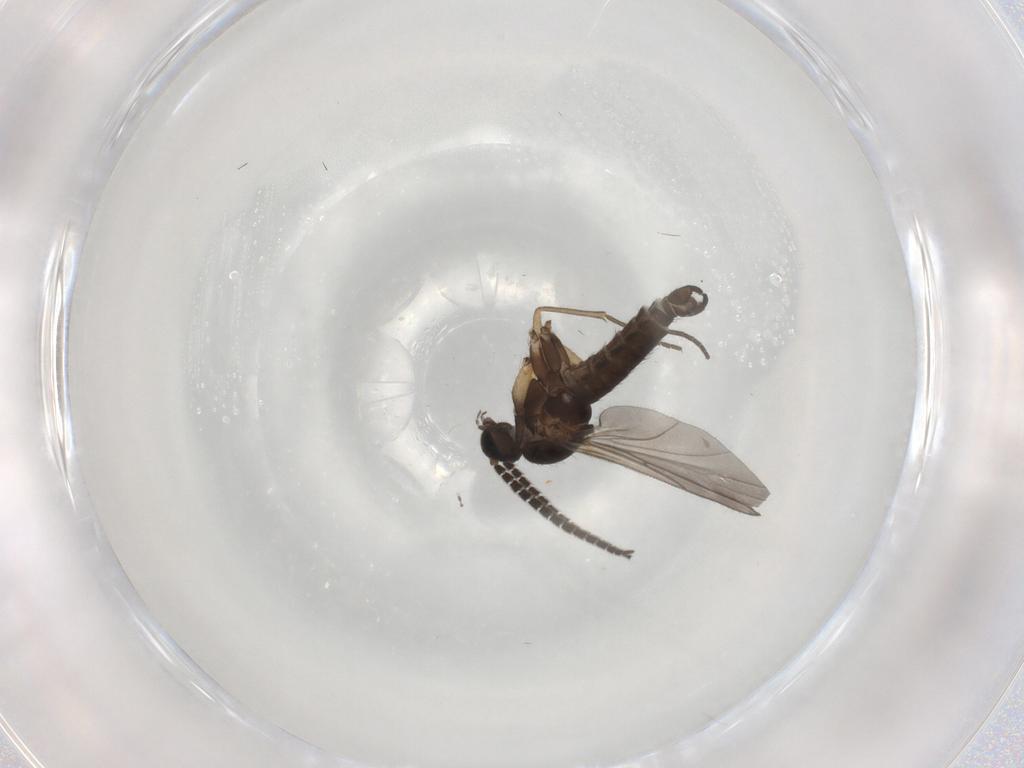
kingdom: Animalia
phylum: Arthropoda
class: Insecta
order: Diptera
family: Cecidomyiidae
